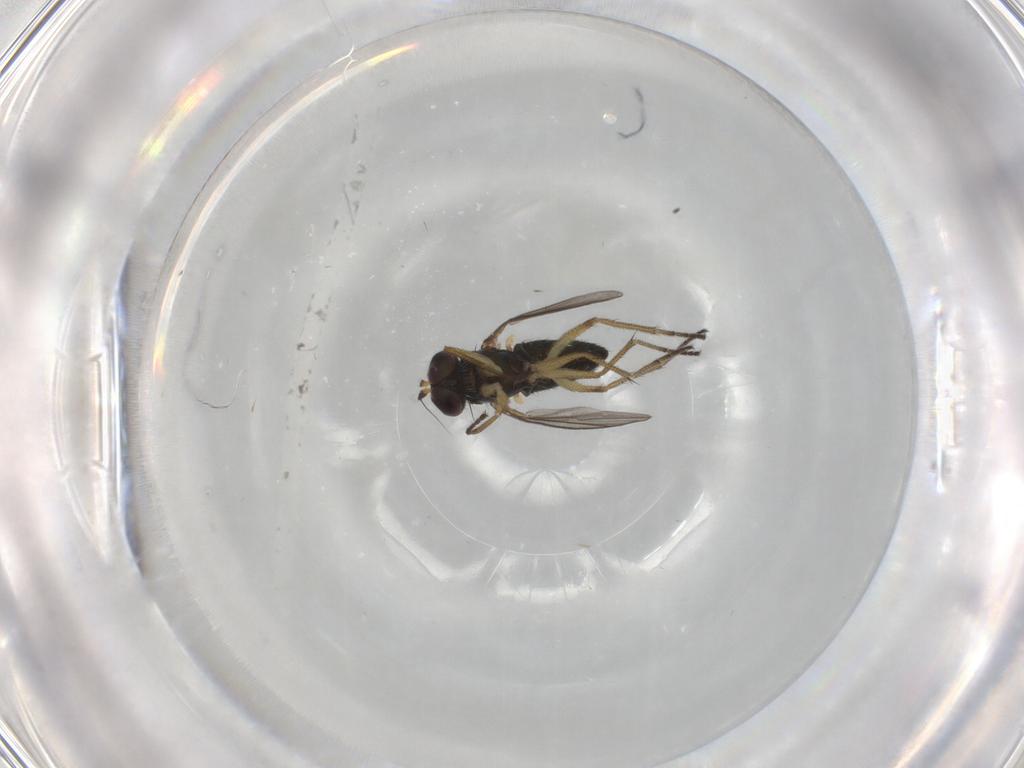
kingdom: Animalia
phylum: Arthropoda
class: Insecta
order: Diptera
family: Dolichopodidae
